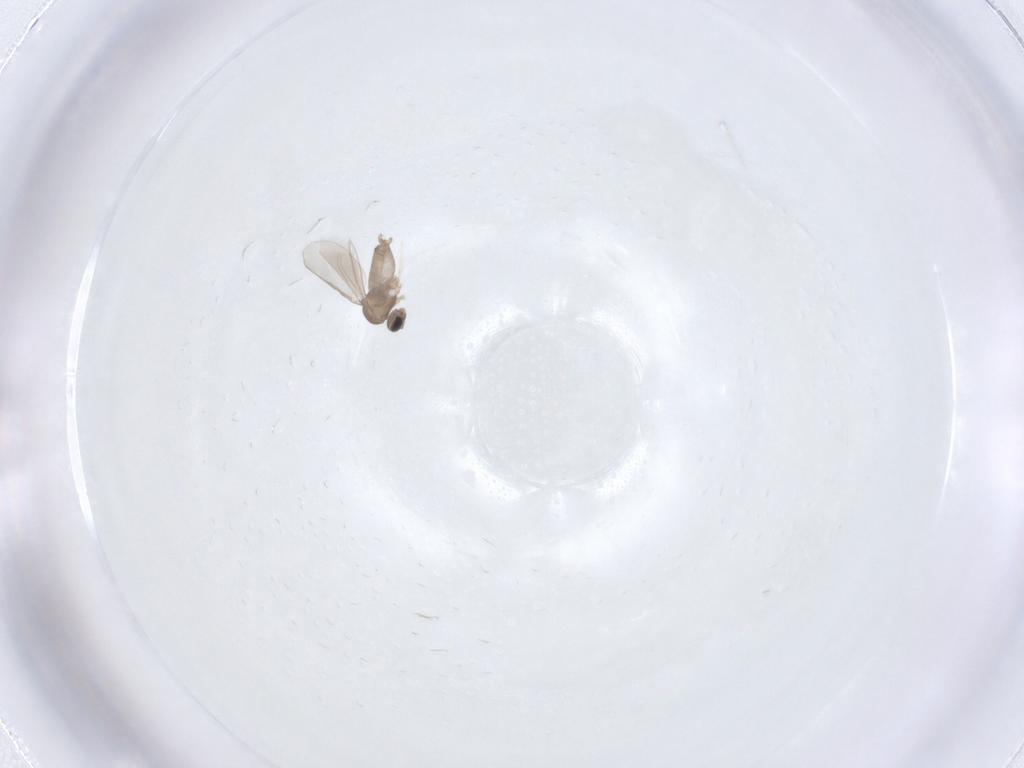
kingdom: Animalia
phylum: Arthropoda
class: Insecta
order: Diptera
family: Cecidomyiidae
